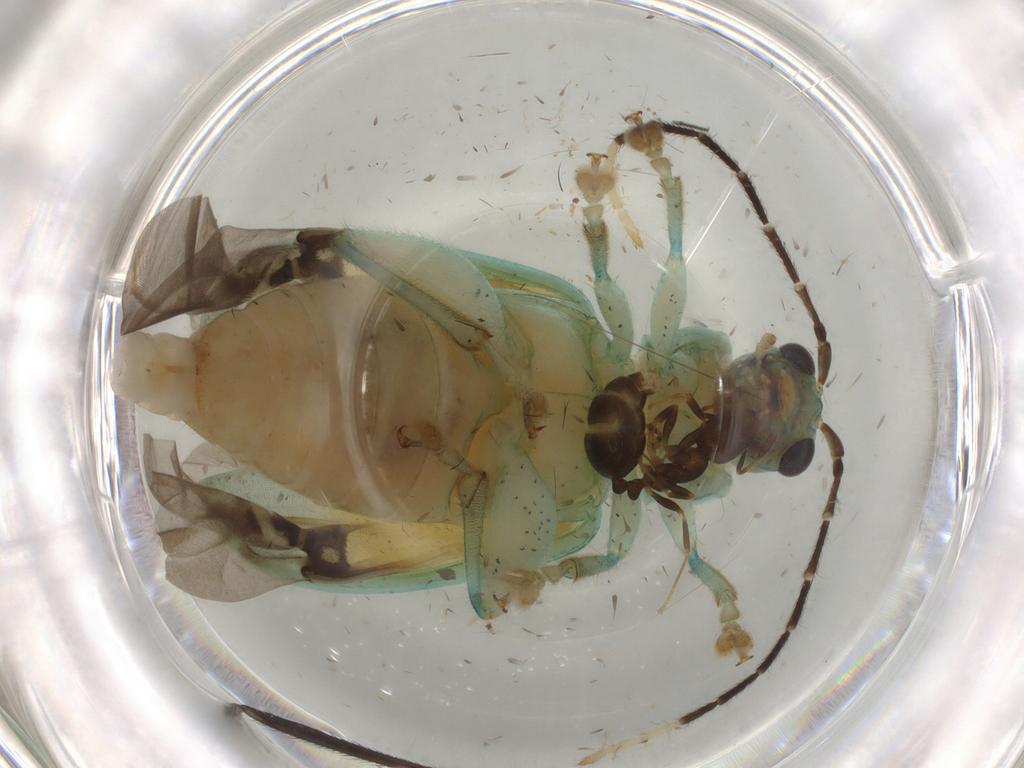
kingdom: Animalia
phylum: Arthropoda
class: Insecta
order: Coleoptera
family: Chrysomelidae
